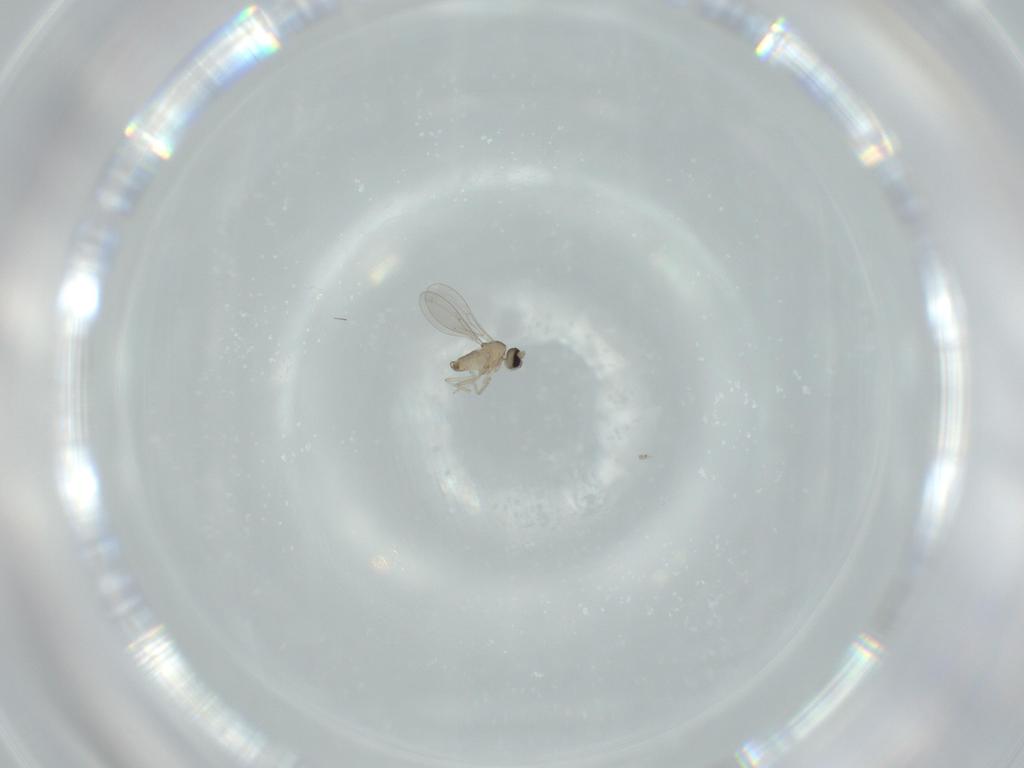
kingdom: Animalia
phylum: Arthropoda
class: Insecta
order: Diptera
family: Cecidomyiidae
